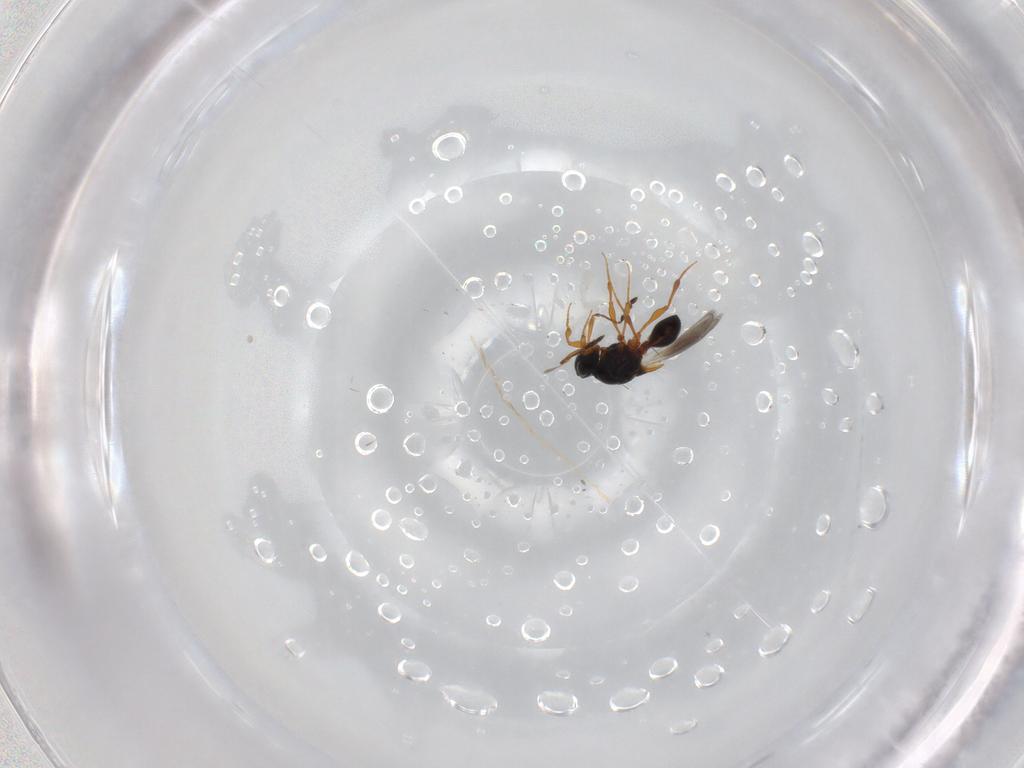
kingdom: Animalia
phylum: Arthropoda
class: Insecta
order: Hymenoptera
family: Platygastridae
